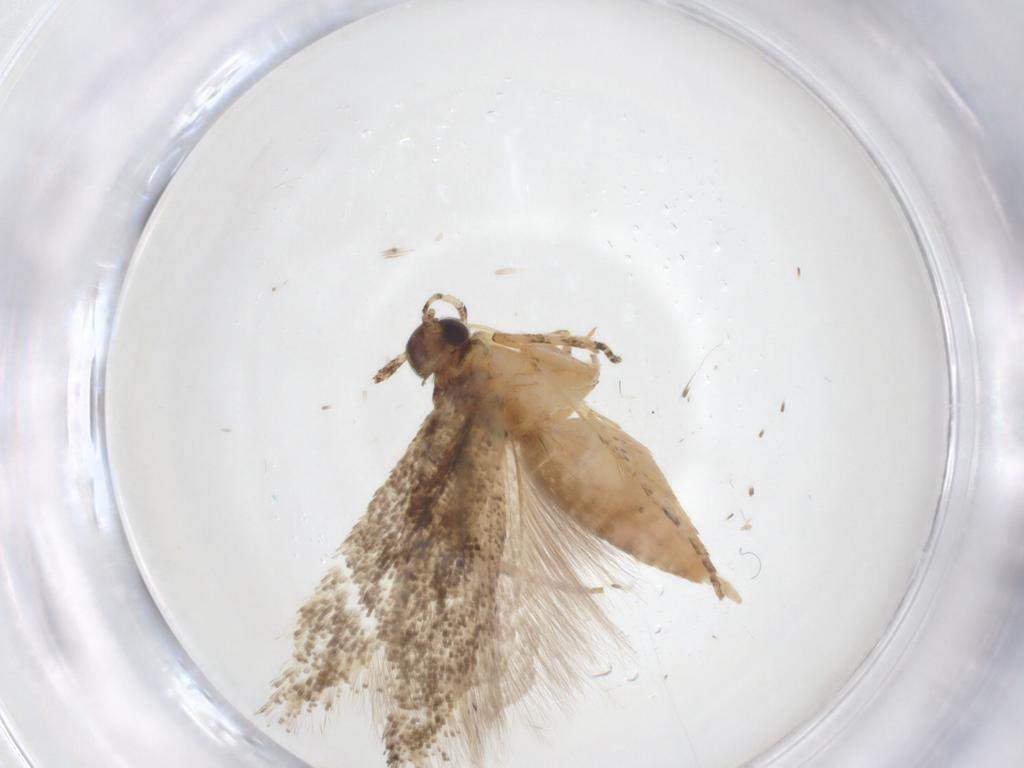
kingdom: Animalia
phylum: Arthropoda
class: Insecta
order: Lepidoptera
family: Gelechiidae
